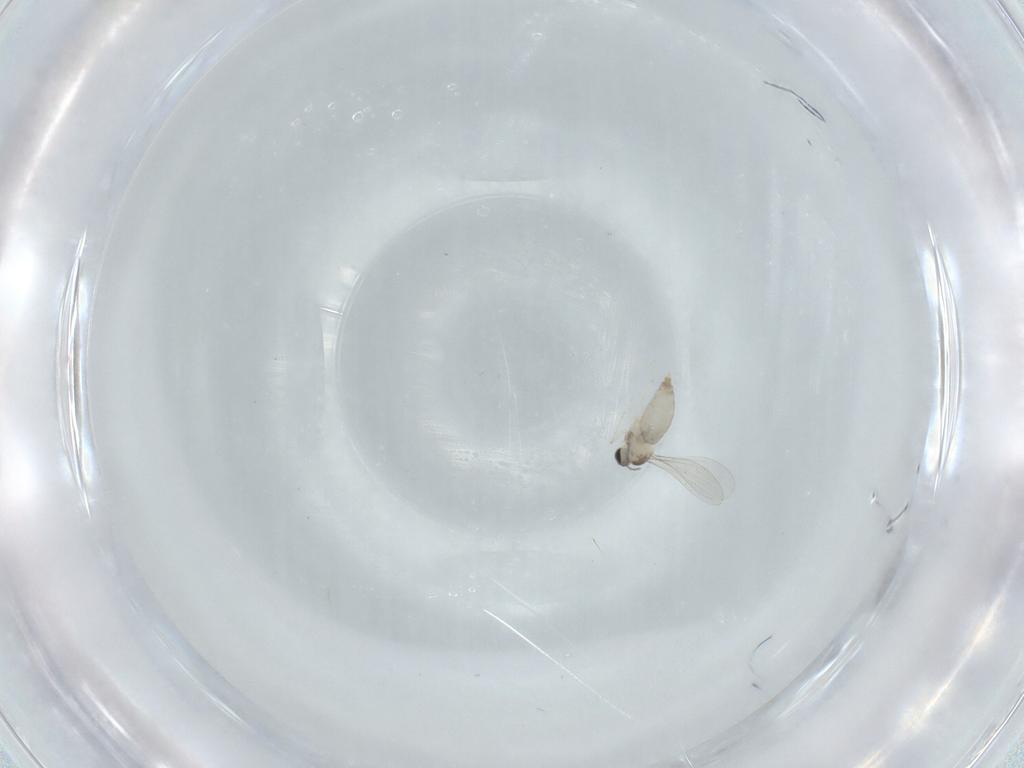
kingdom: Animalia
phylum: Arthropoda
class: Insecta
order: Diptera
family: Cecidomyiidae
